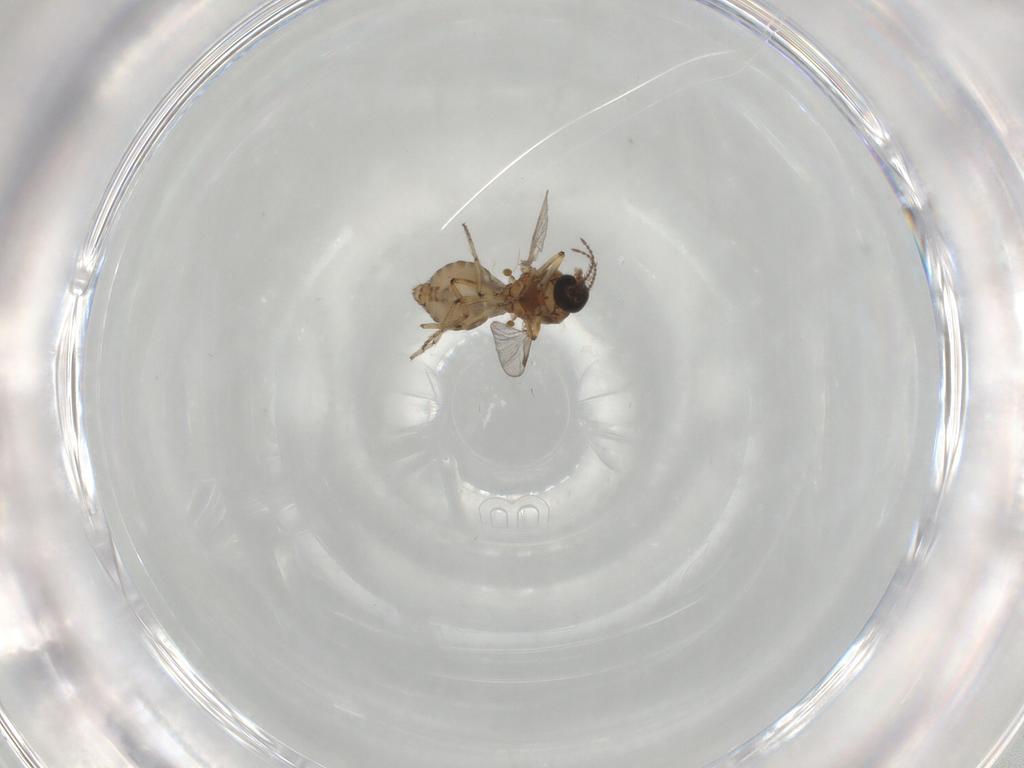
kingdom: Animalia
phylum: Arthropoda
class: Insecta
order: Diptera
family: Ceratopogonidae
